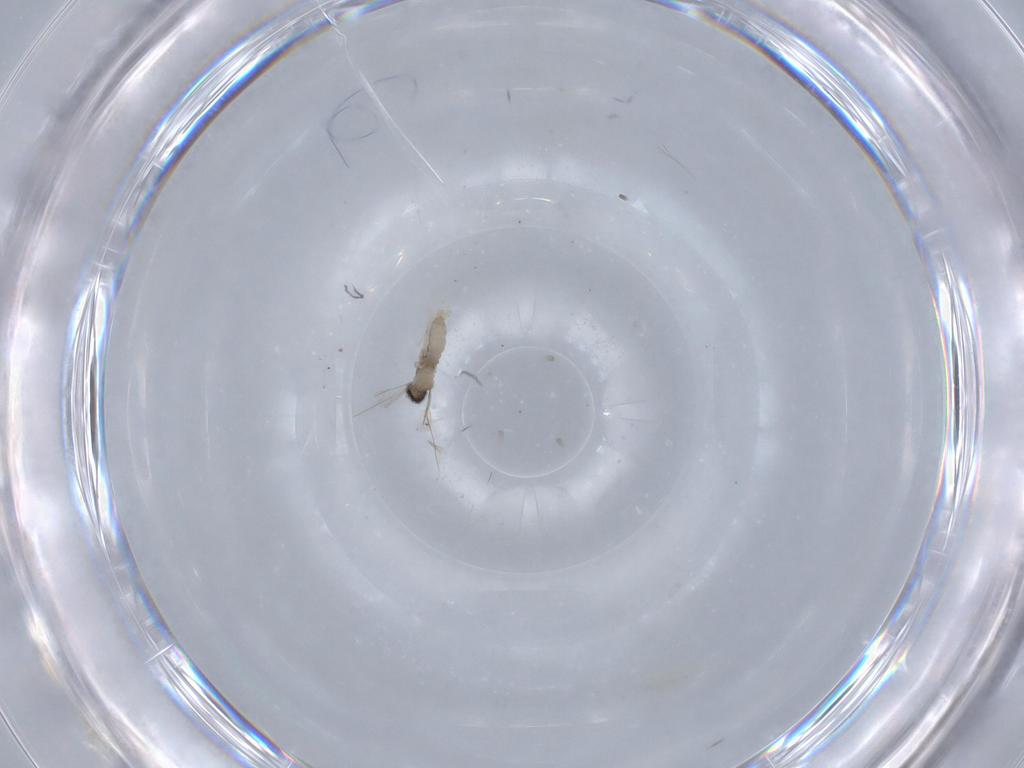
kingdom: Animalia
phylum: Arthropoda
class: Insecta
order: Diptera
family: Cecidomyiidae
